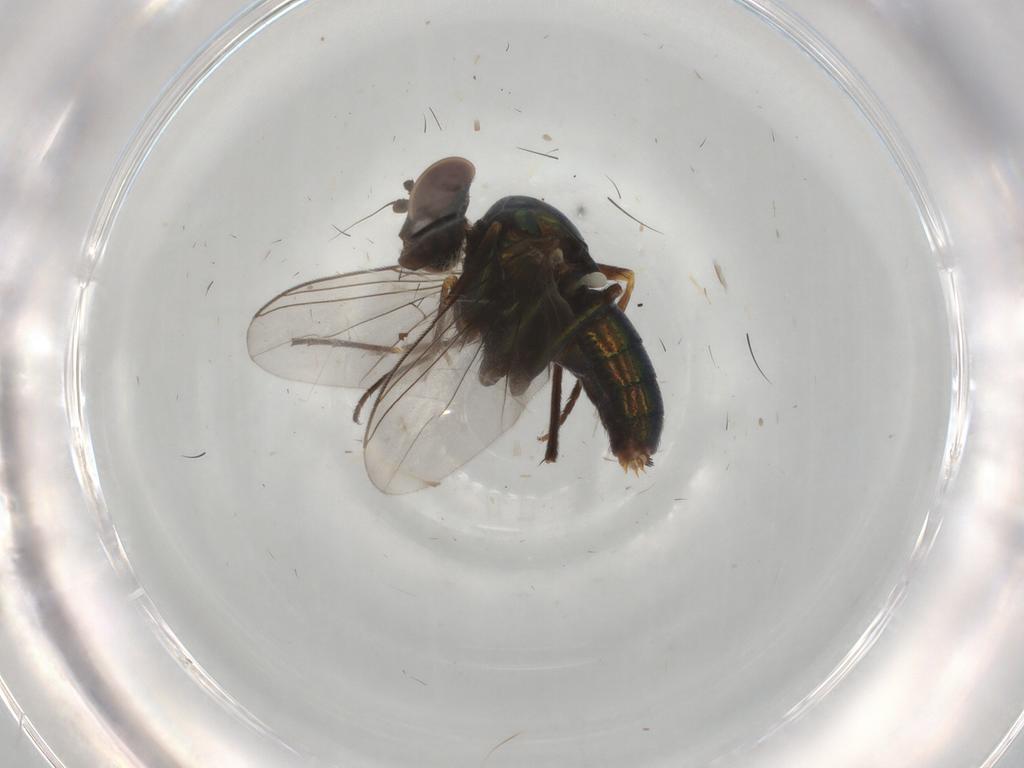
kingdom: Animalia
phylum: Arthropoda
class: Insecta
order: Diptera
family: Dolichopodidae
